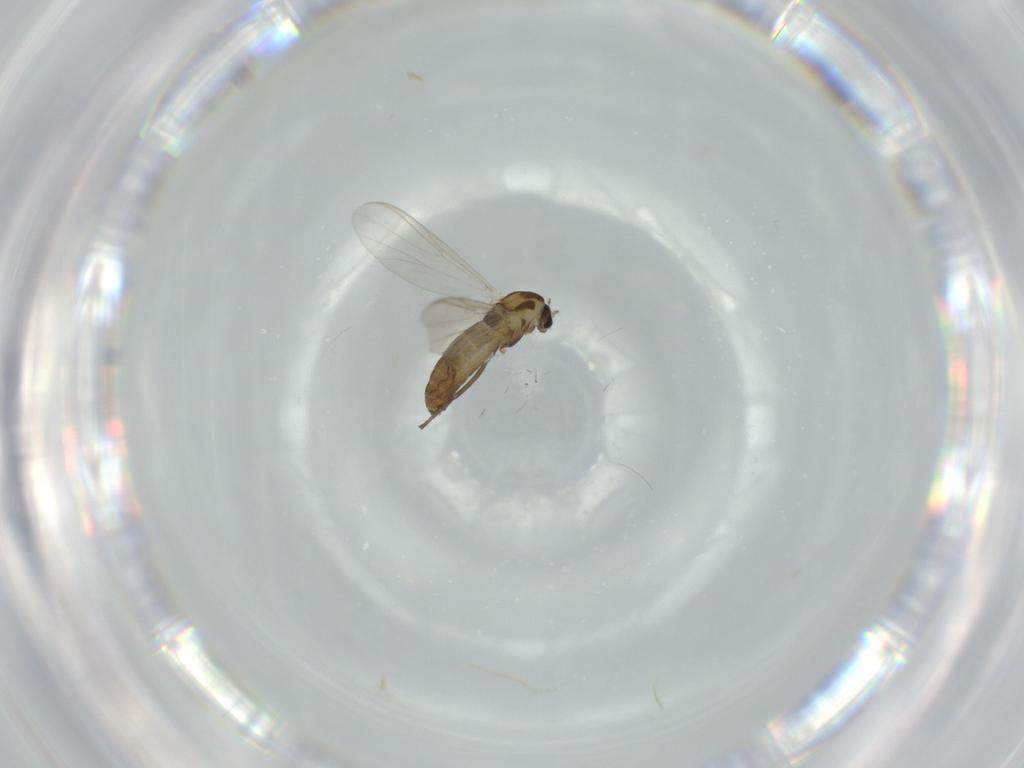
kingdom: Animalia
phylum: Arthropoda
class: Insecta
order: Diptera
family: Chironomidae
